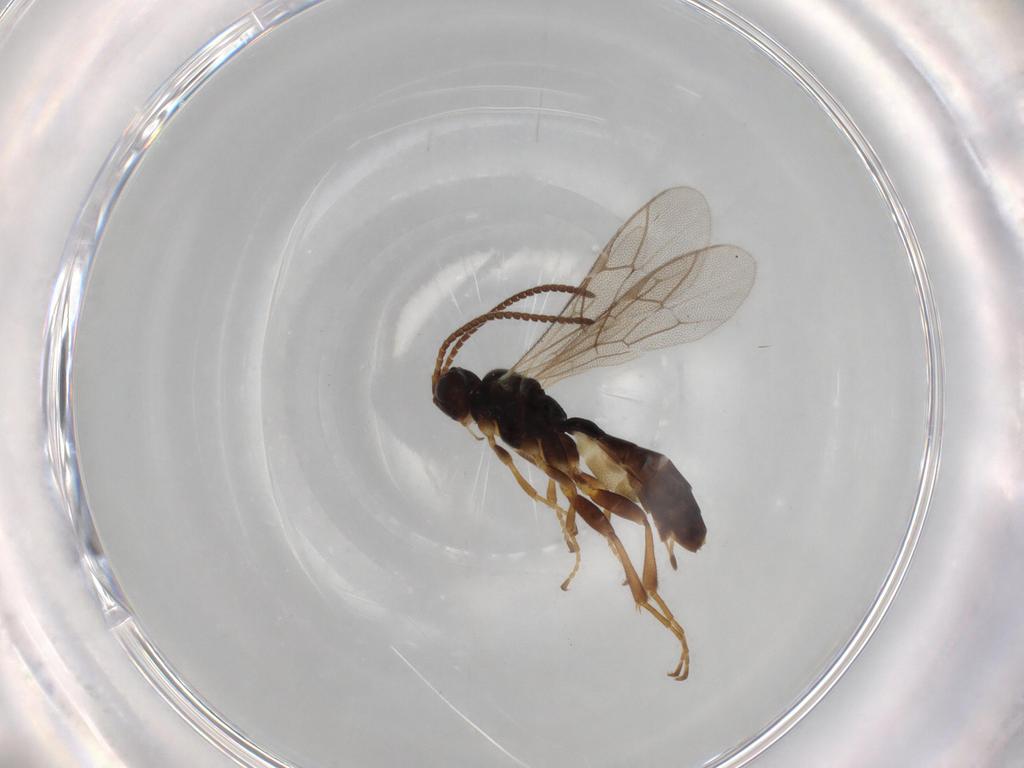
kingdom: Animalia
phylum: Arthropoda
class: Insecta
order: Hymenoptera
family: Ichneumonidae
